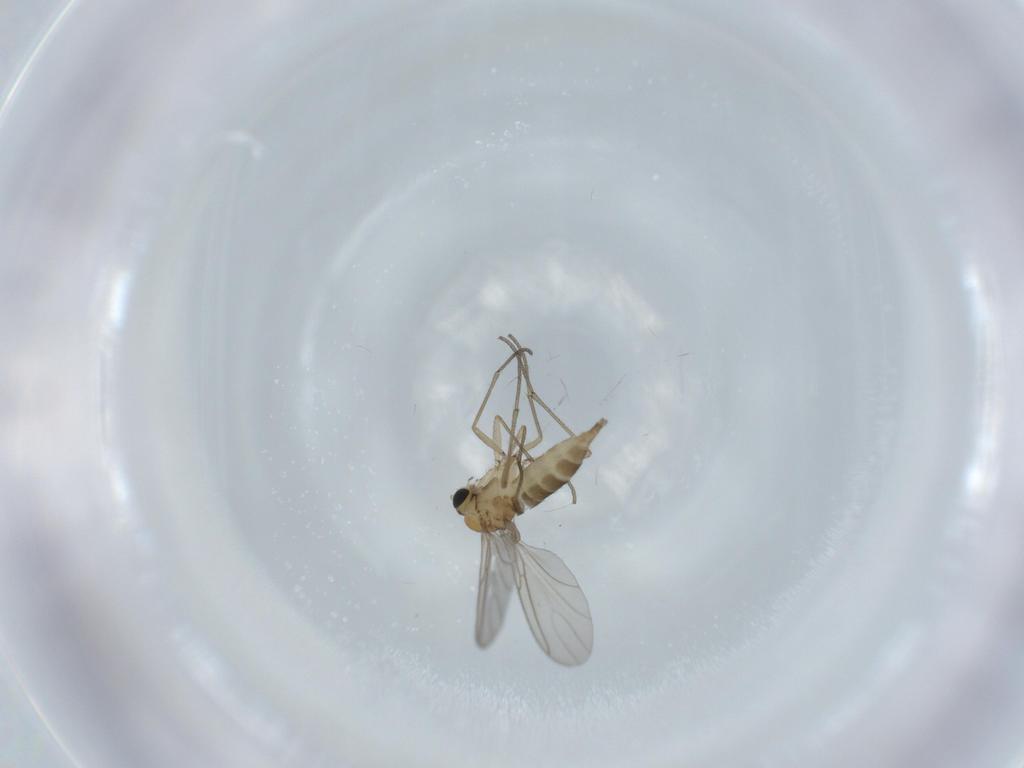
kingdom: Animalia
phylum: Arthropoda
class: Insecta
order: Diptera
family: Sciaridae
